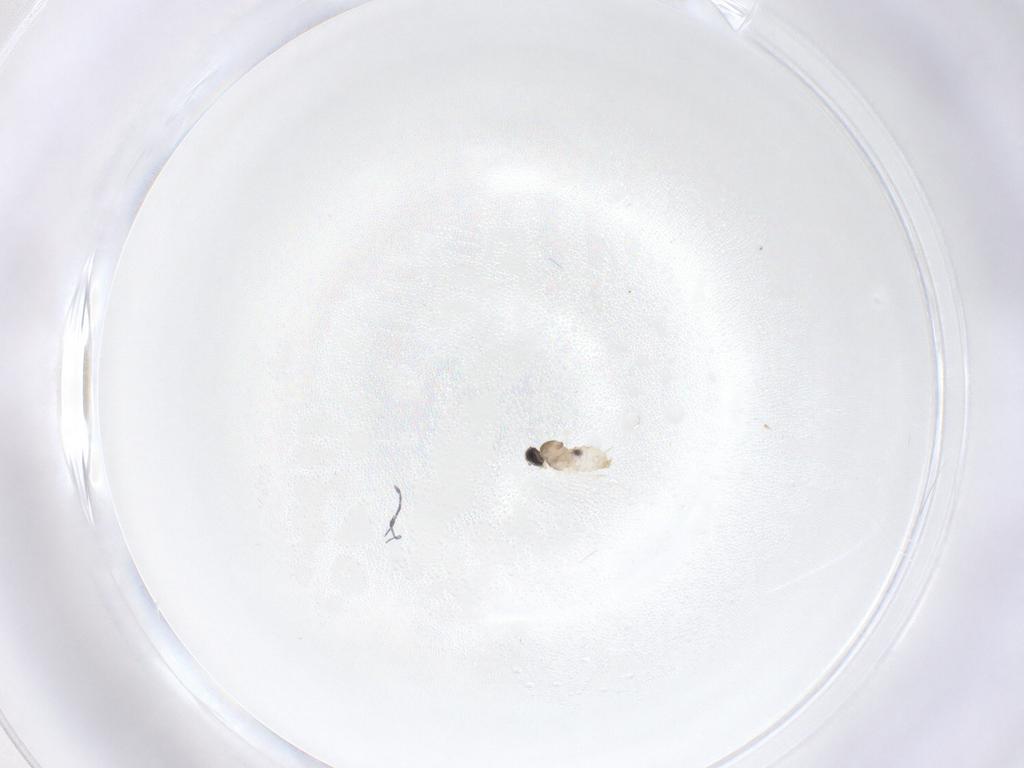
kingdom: Animalia
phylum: Arthropoda
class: Insecta
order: Diptera
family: Cecidomyiidae
